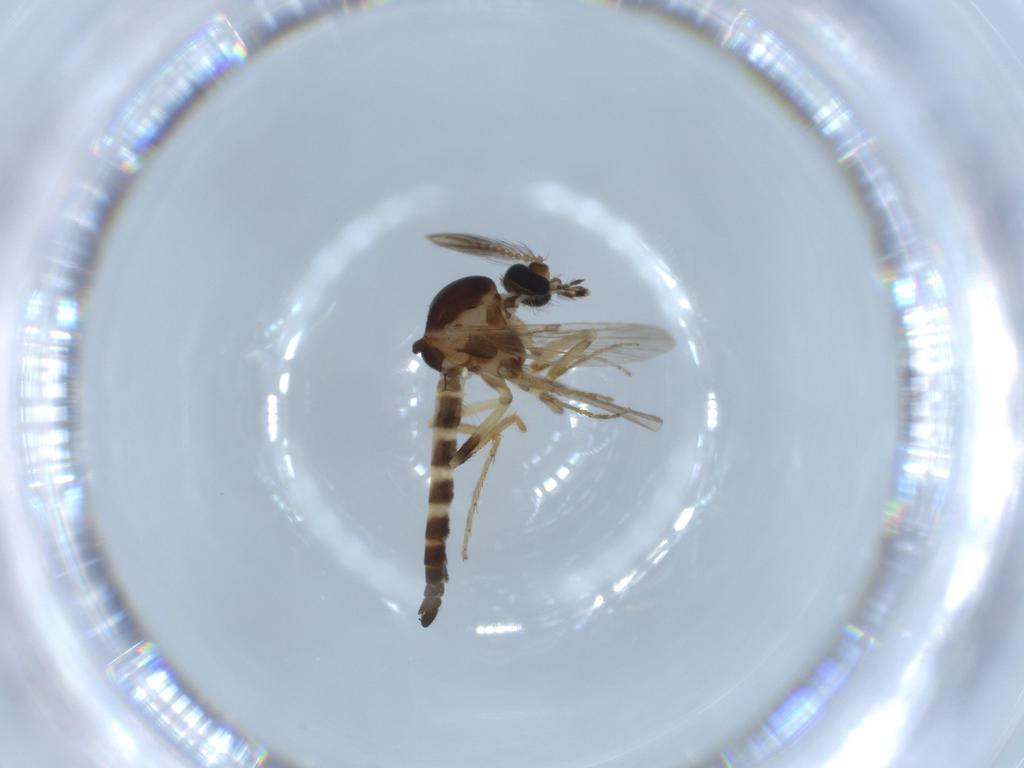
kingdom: Animalia
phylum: Arthropoda
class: Insecta
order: Diptera
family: Ceratopogonidae
